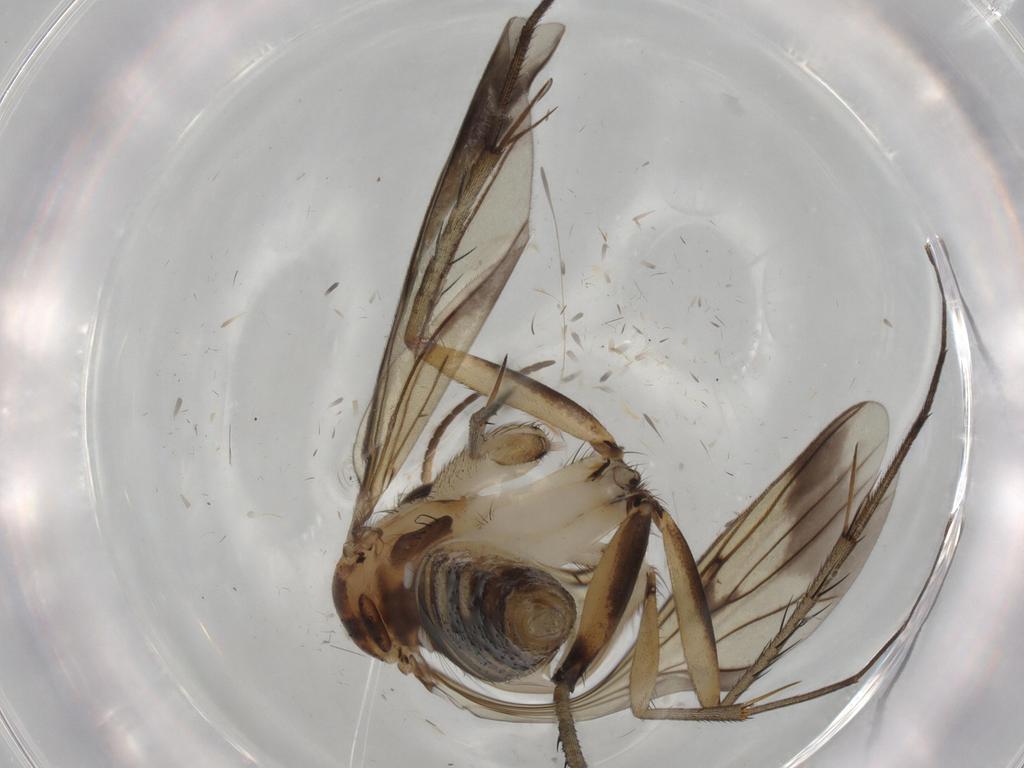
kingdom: Animalia
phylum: Arthropoda
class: Insecta
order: Diptera
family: Mycetophilidae
